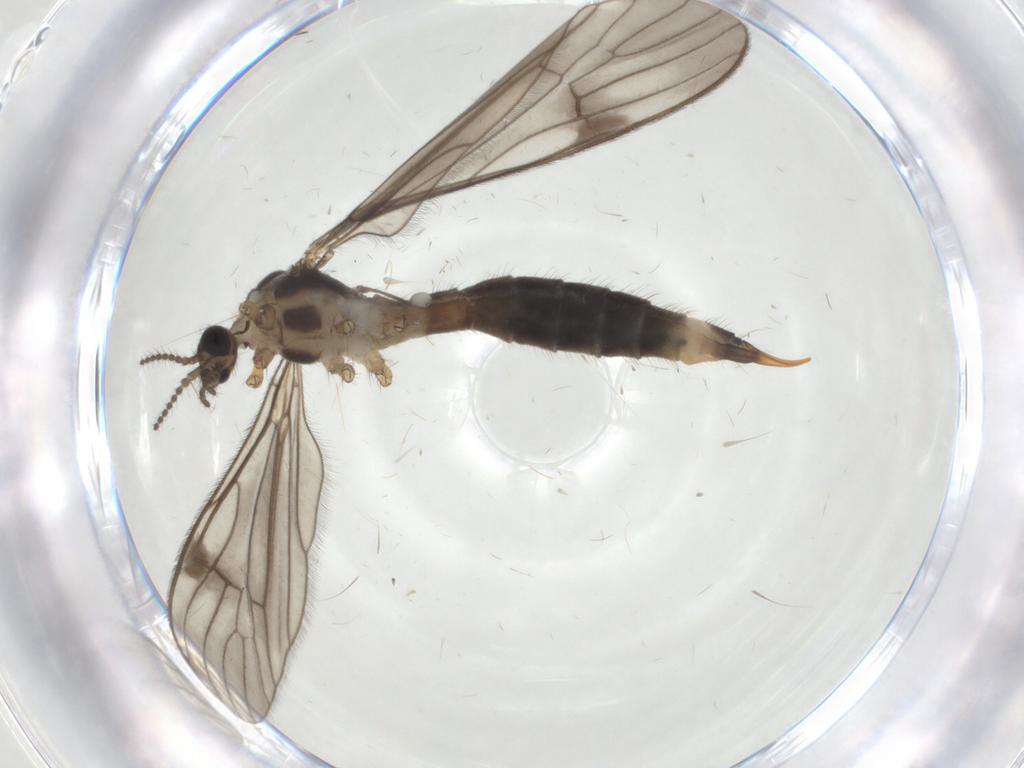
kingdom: Animalia
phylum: Arthropoda
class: Insecta
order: Diptera
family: Limoniidae
